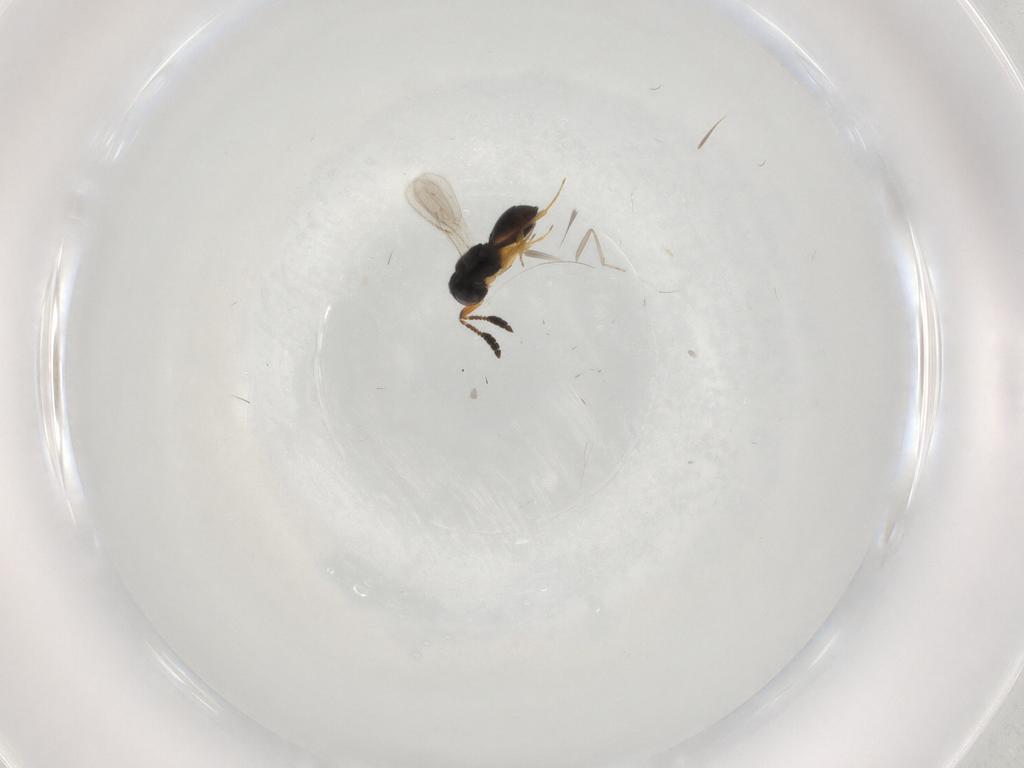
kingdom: Animalia
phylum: Arthropoda
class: Insecta
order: Hymenoptera
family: Scelionidae
